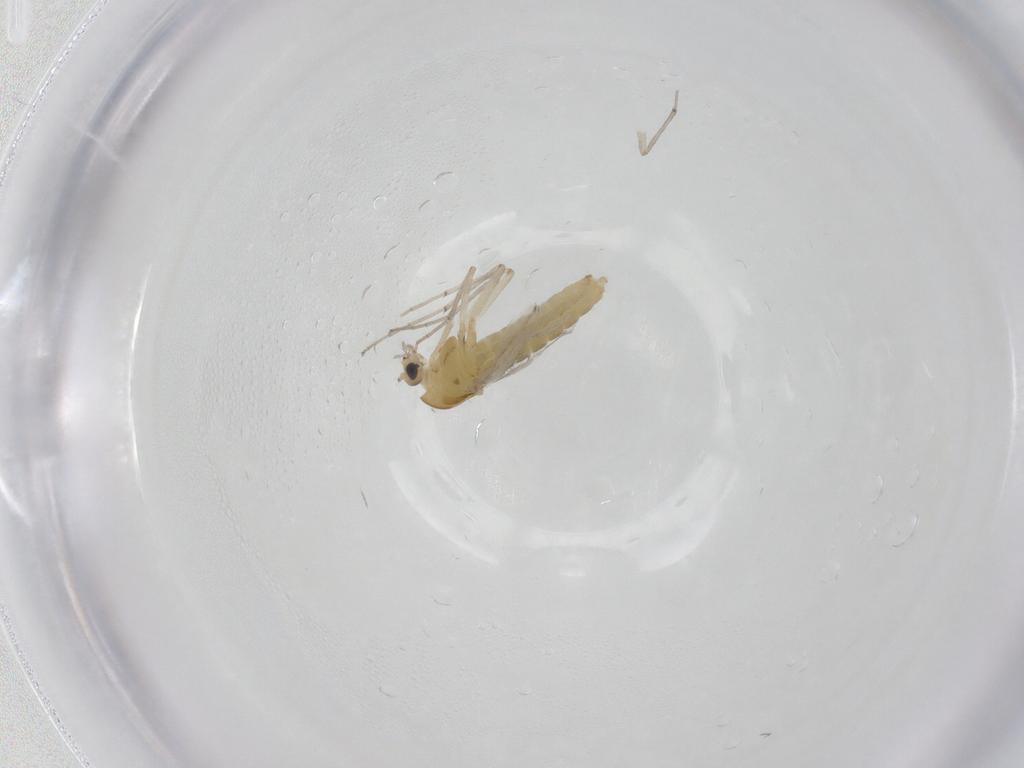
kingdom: Animalia
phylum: Arthropoda
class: Insecta
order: Diptera
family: Chironomidae
